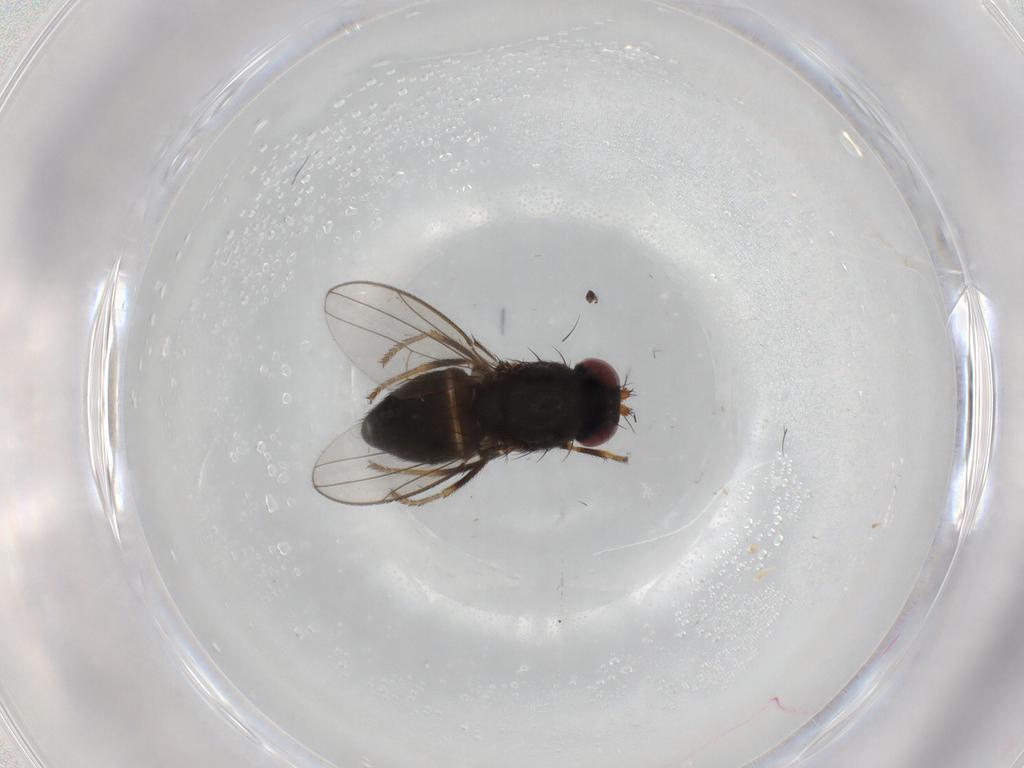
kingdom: Animalia
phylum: Arthropoda
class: Insecta
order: Diptera
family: Ephydridae
